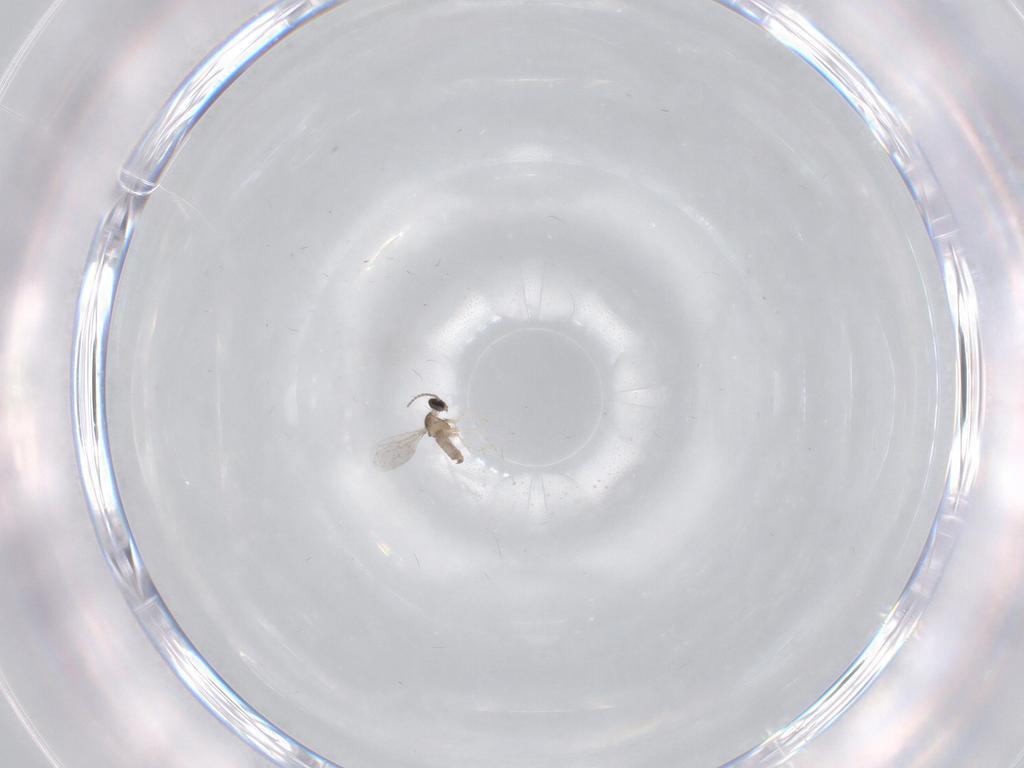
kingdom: Animalia
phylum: Arthropoda
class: Insecta
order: Diptera
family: Cecidomyiidae
